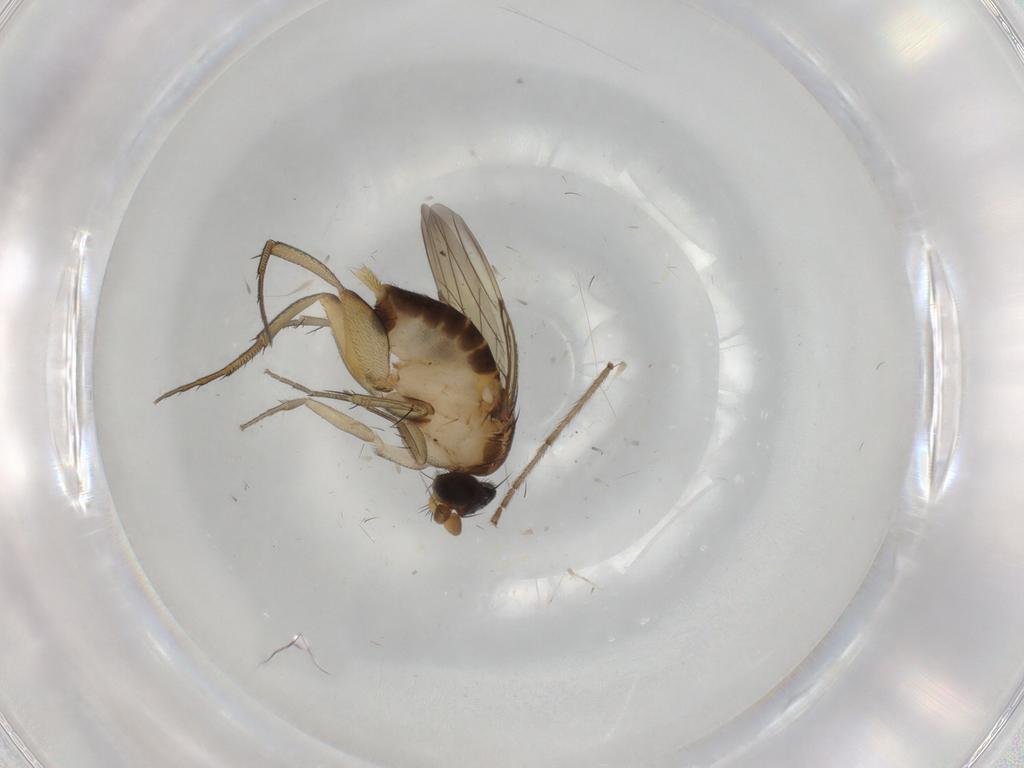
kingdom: Animalia
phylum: Arthropoda
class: Insecta
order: Diptera
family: Phoridae
